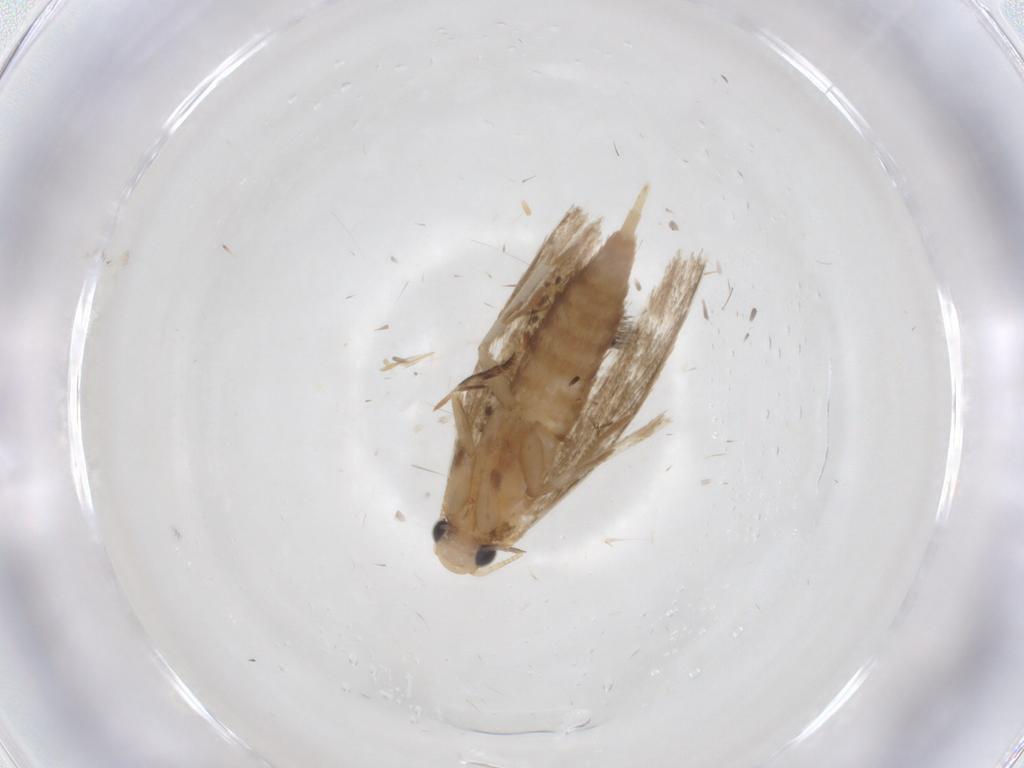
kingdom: Animalia
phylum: Arthropoda
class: Insecta
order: Lepidoptera
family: Tineidae
